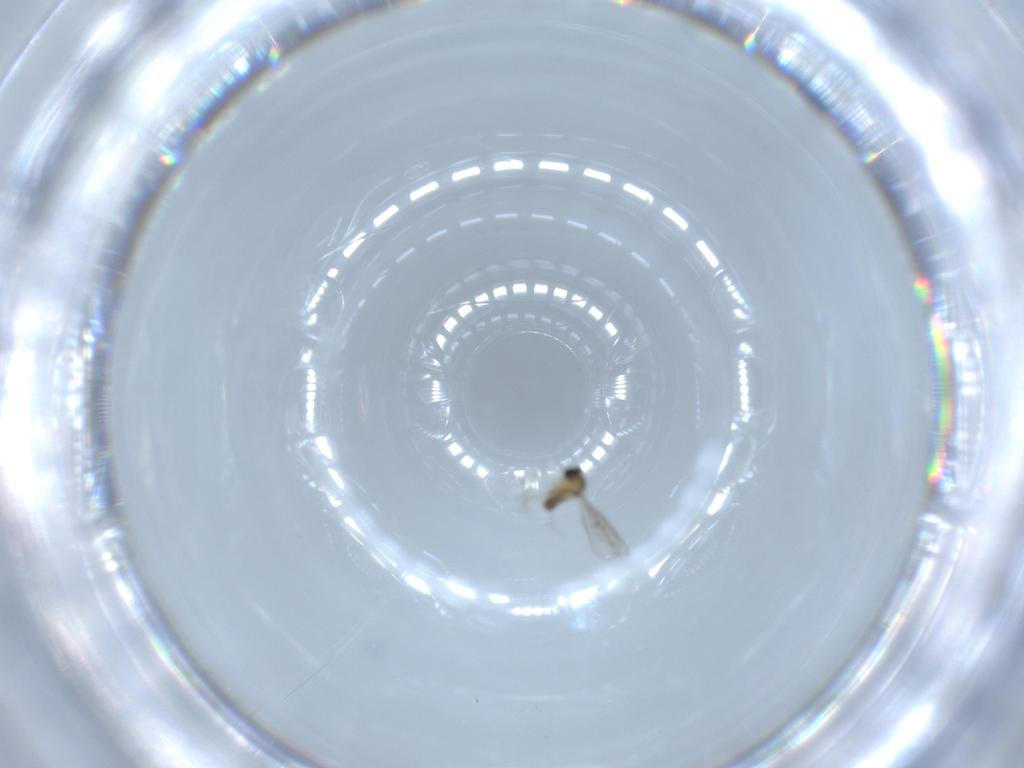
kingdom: Animalia
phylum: Arthropoda
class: Insecta
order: Diptera
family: Cecidomyiidae
